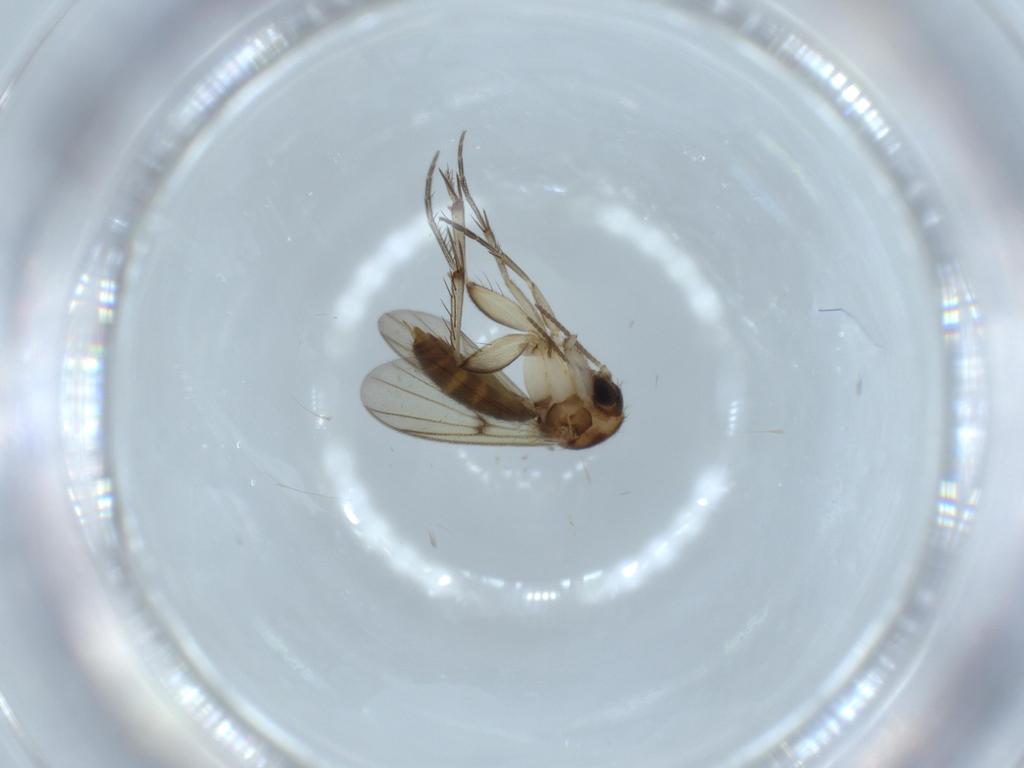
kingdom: Animalia
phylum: Arthropoda
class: Insecta
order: Diptera
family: Mycetophilidae
